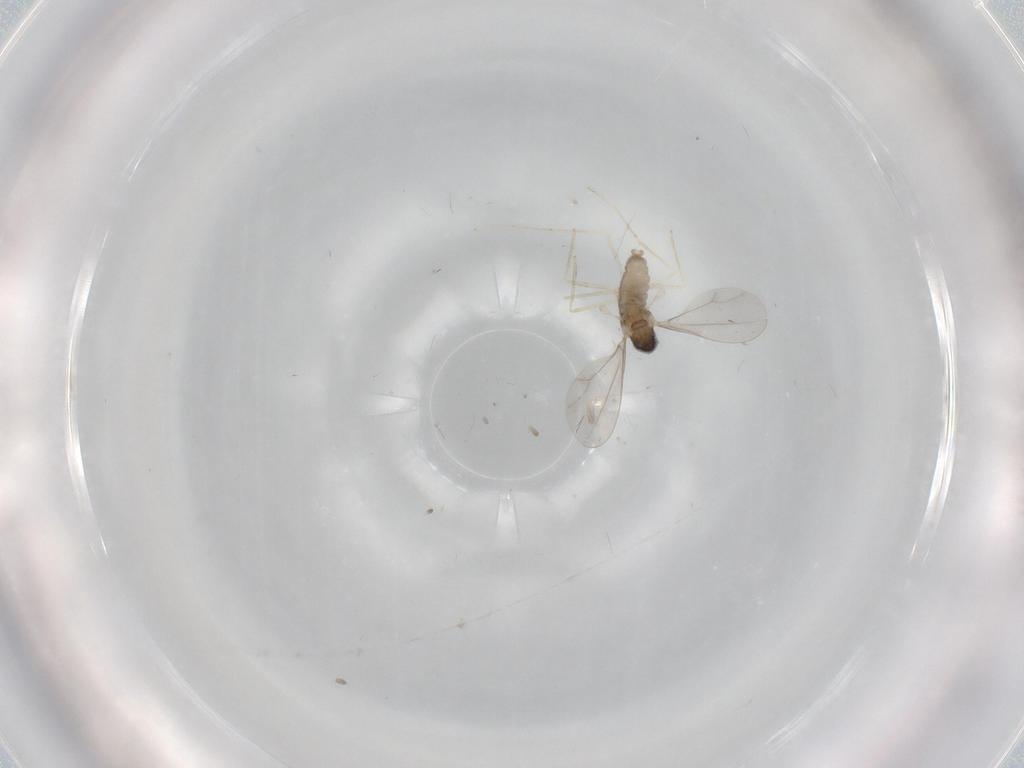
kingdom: Animalia
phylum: Arthropoda
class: Insecta
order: Diptera
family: Cecidomyiidae
